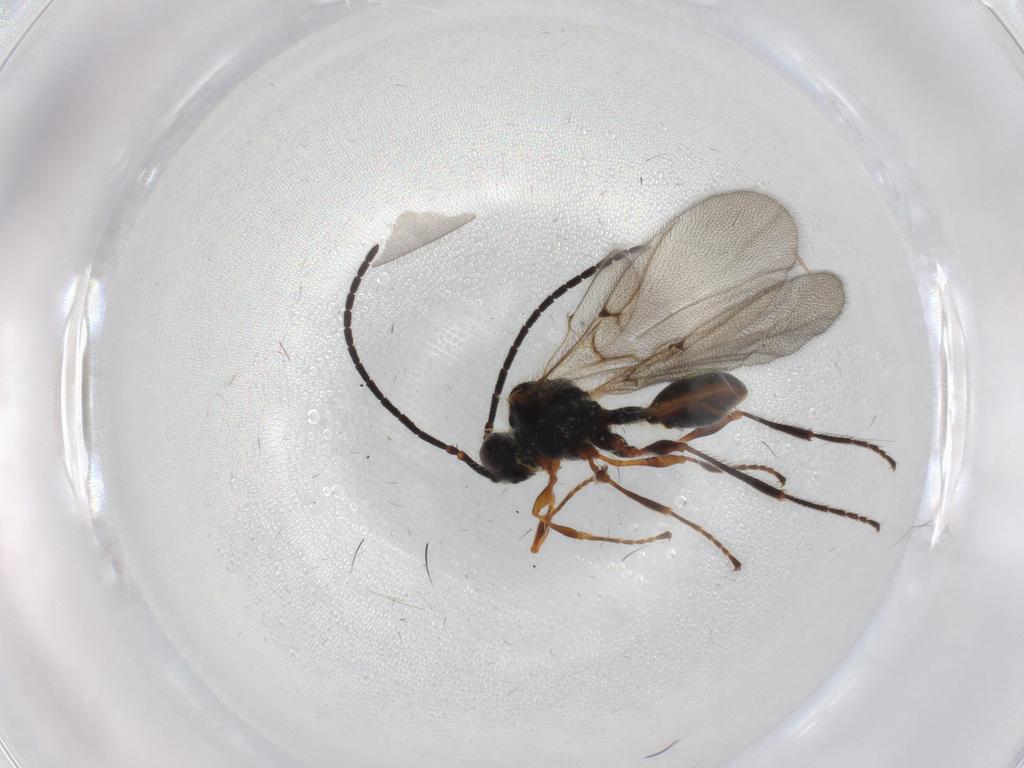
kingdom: Animalia
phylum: Arthropoda
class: Insecta
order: Hymenoptera
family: Diapriidae
